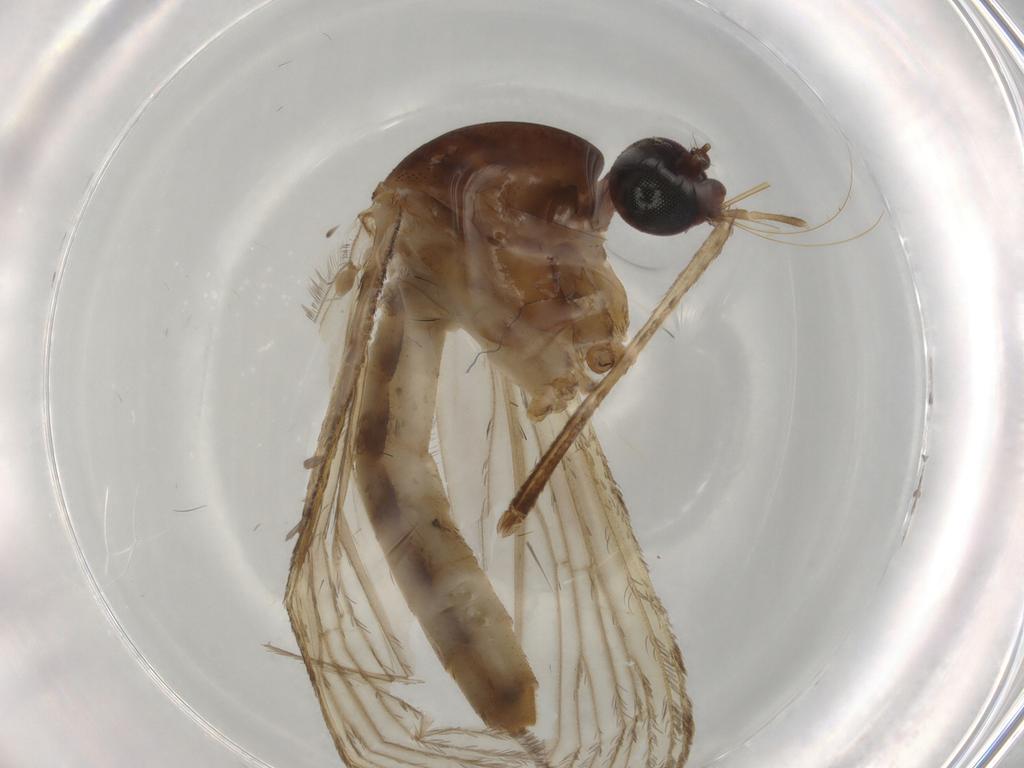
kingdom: Animalia
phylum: Arthropoda
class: Insecta
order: Diptera
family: Culicidae
